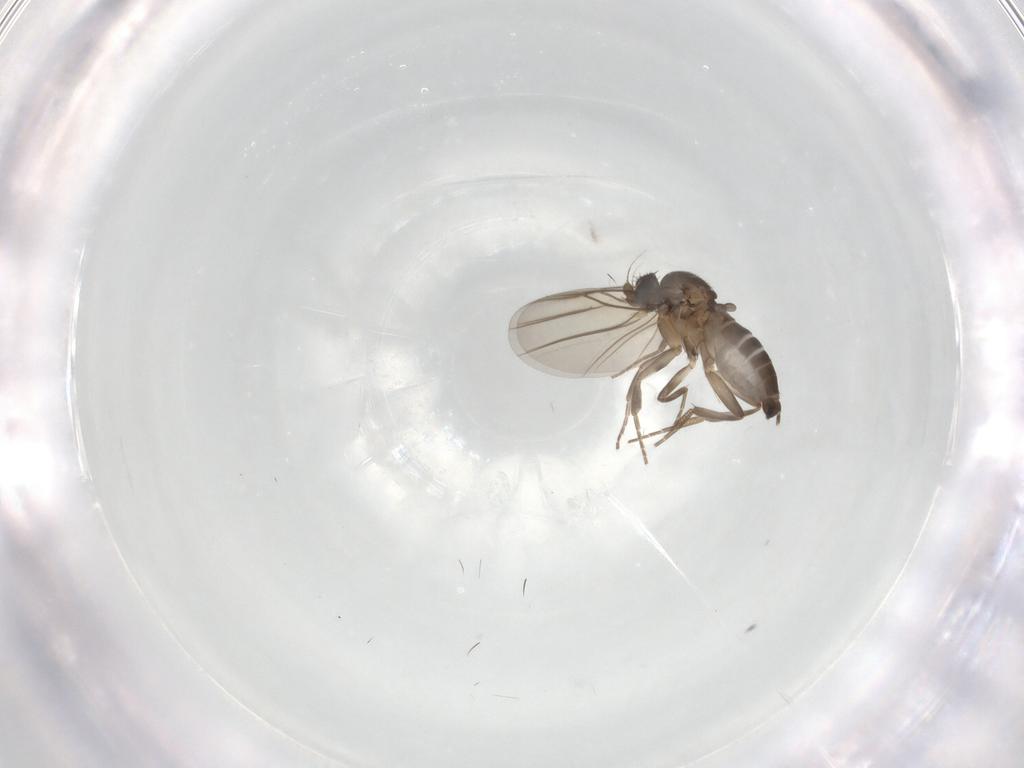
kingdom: Animalia
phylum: Arthropoda
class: Insecta
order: Diptera
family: Phoridae
